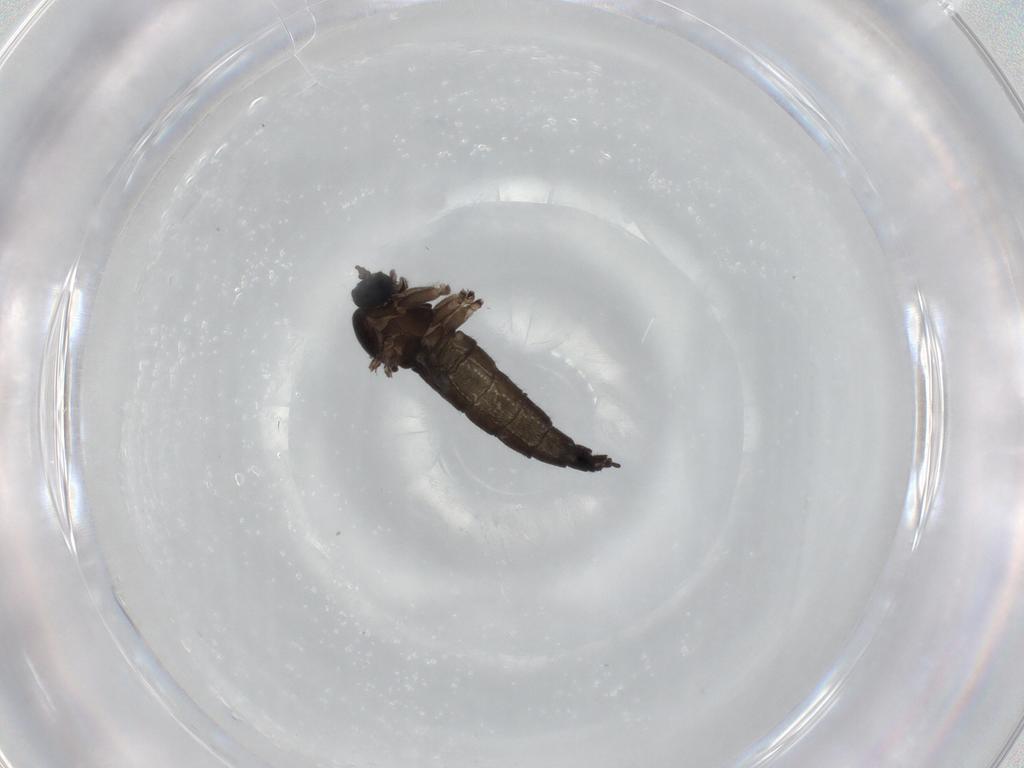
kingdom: Animalia
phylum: Arthropoda
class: Insecta
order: Diptera
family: Sciaridae
